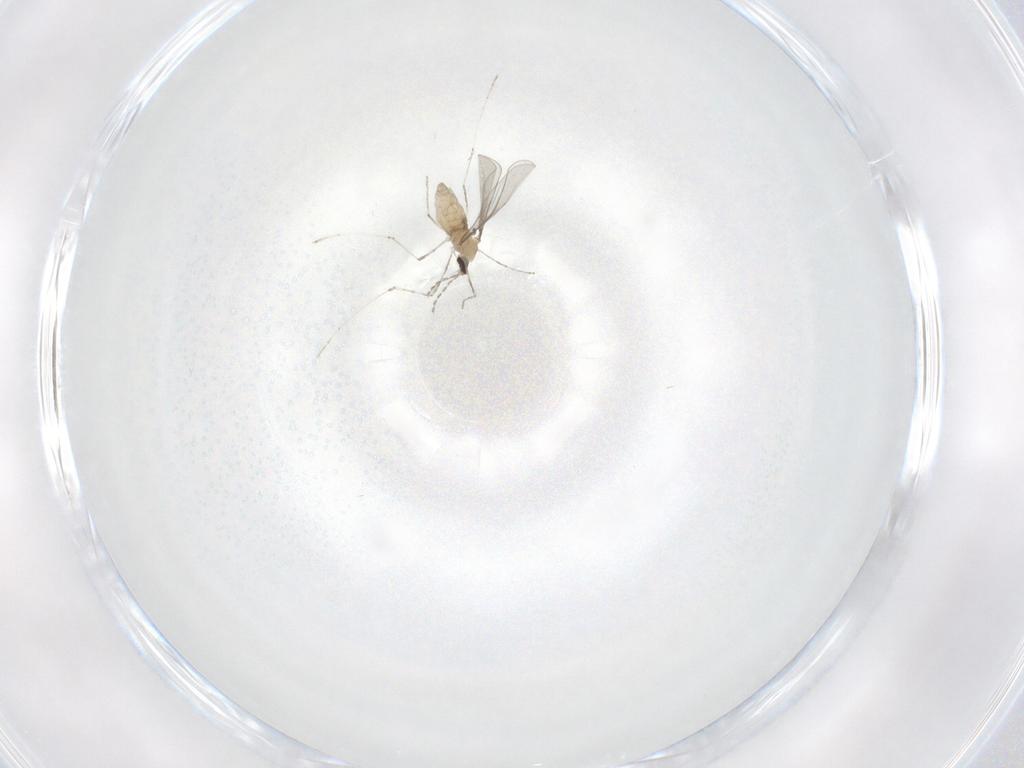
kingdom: Animalia
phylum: Arthropoda
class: Insecta
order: Diptera
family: Cecidomyiidae
